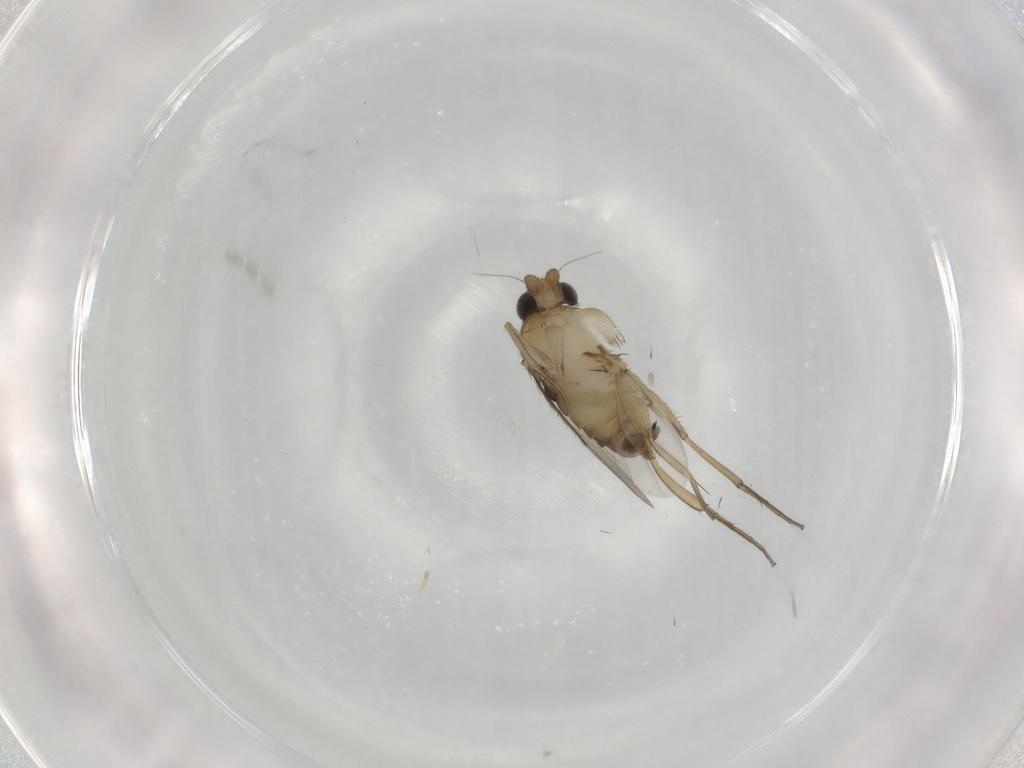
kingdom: Animalia
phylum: Arthropoda
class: Insecta
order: Diptera
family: Phoridae
